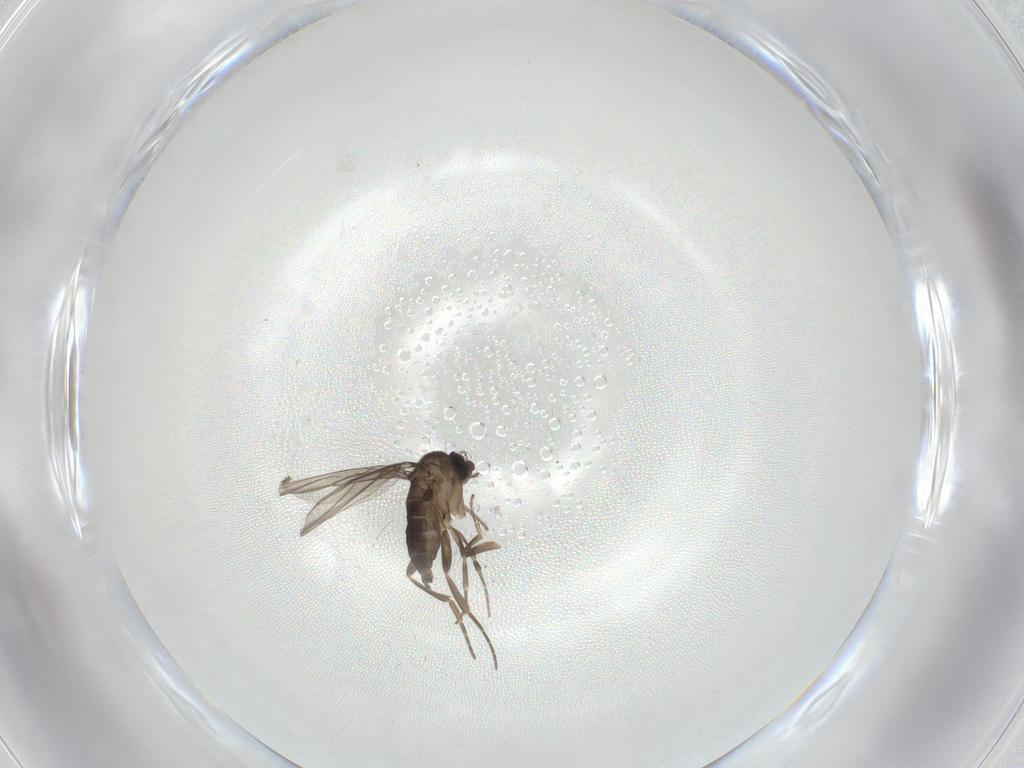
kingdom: Animalia
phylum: Arthropoda
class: Insecta
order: Diptera
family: Phoridae
